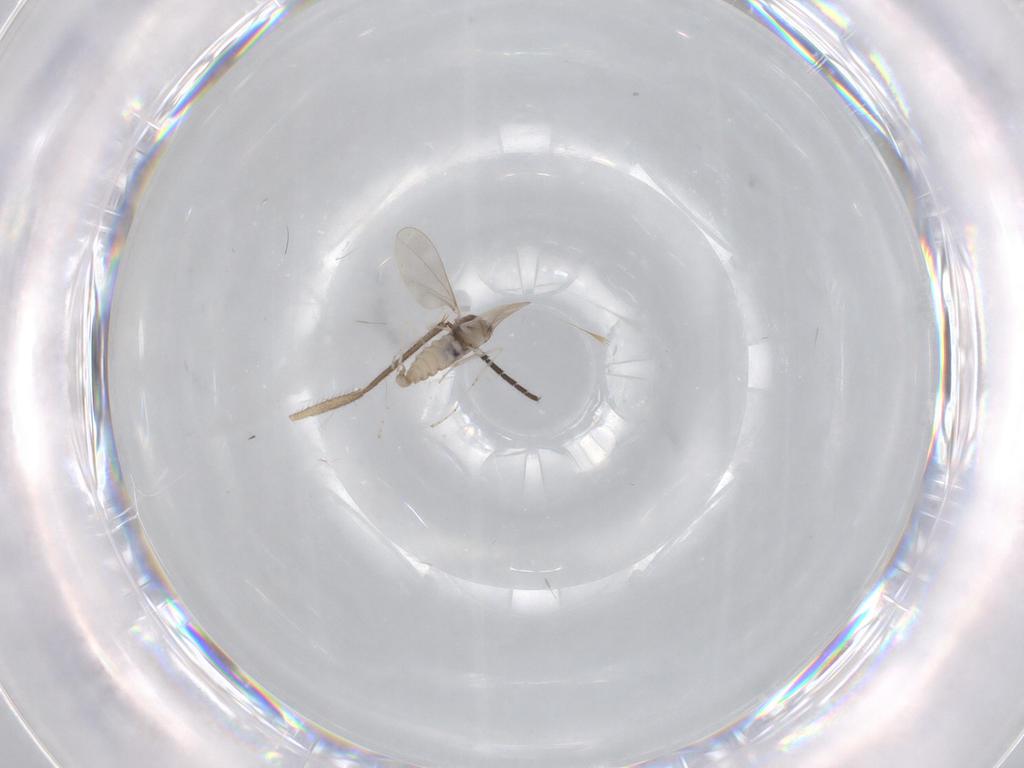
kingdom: Animalia
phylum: Arthropoda
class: Insecta
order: Diptera
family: Cecidomyiidae
